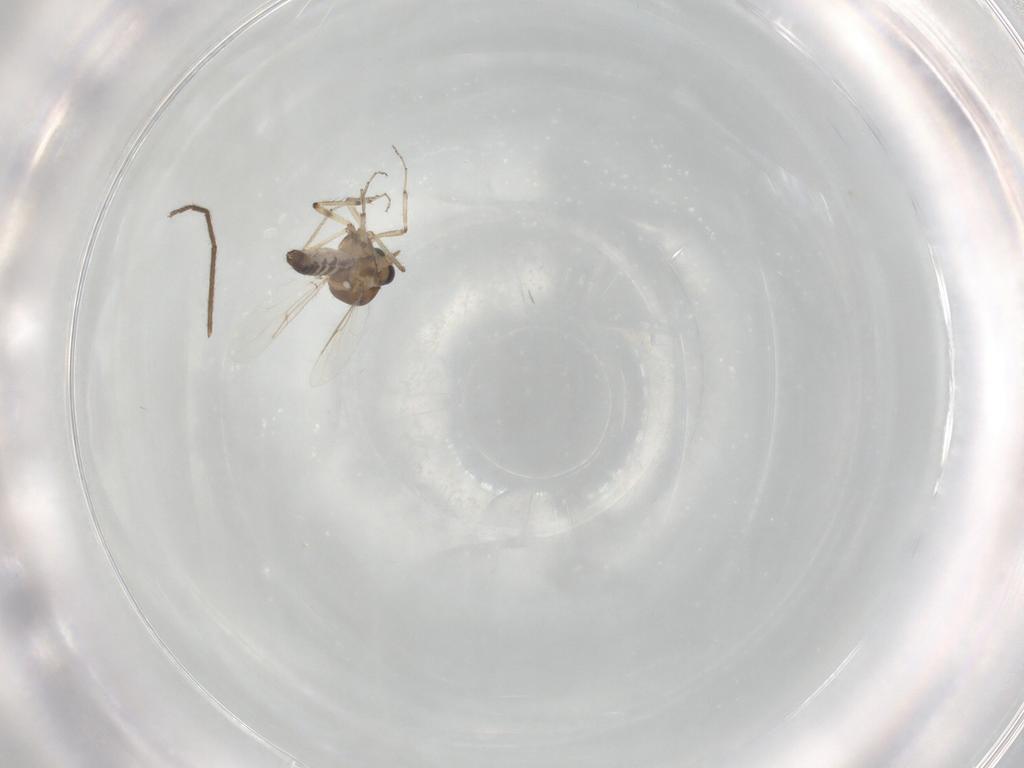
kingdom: Animalia
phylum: Arthropoda
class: Insecta
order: Diptera
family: Ceratopogonidae
